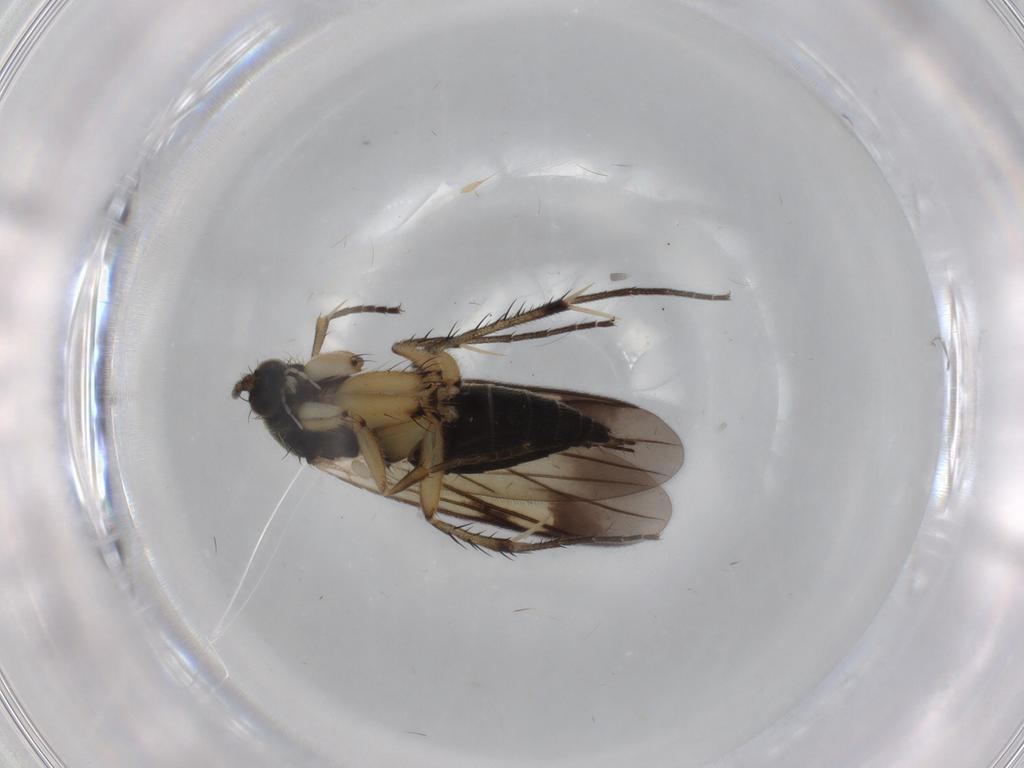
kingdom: Animalia
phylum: Arthropoda
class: Insecta
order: Diptera
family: Mycetophilidae
